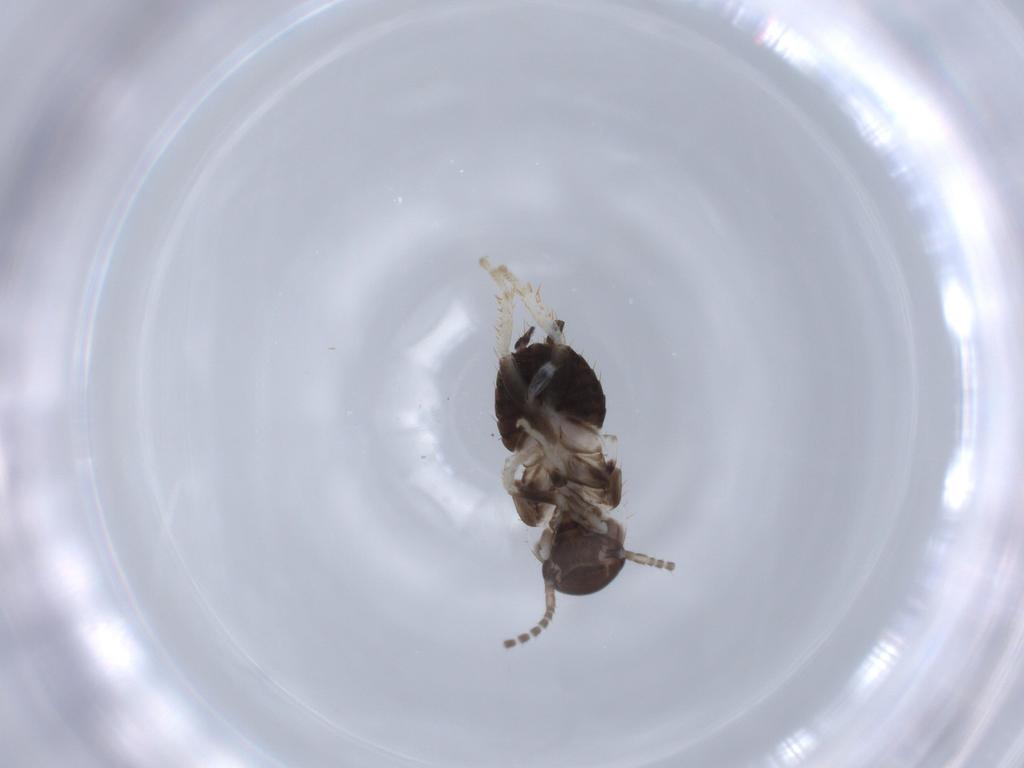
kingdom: Animalia
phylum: Arthropoda
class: Insecta
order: Blattodea
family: Ectobiidae
